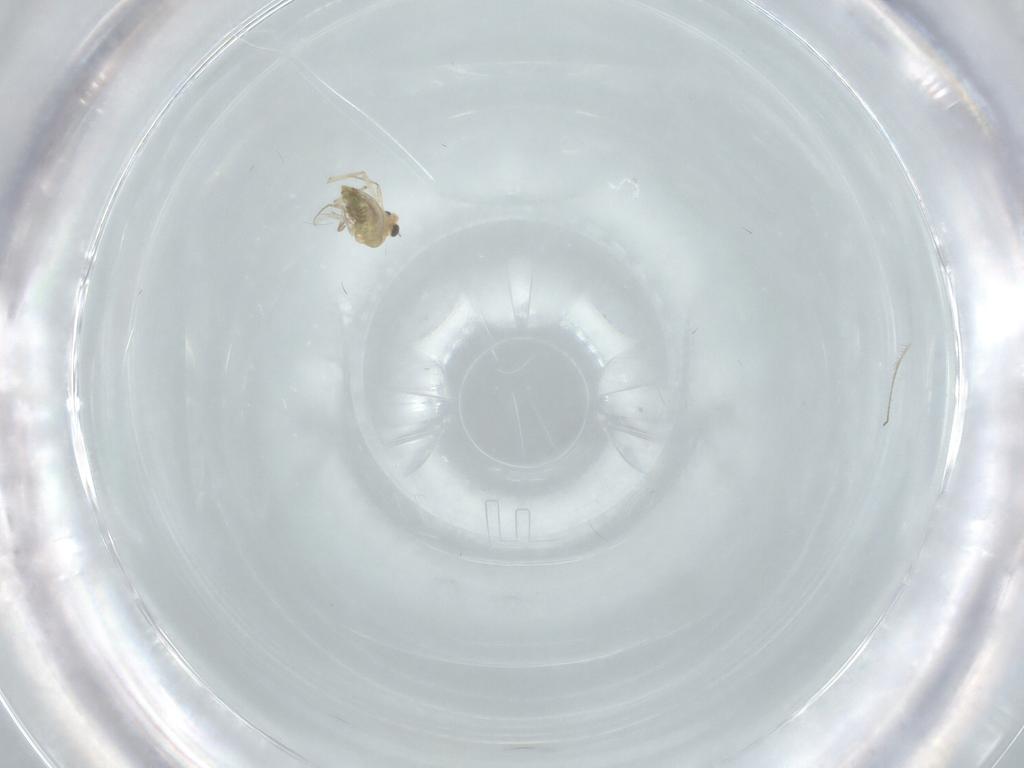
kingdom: Animalia
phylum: Arthropoda
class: Insecta
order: Diptera
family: Chironomidae
